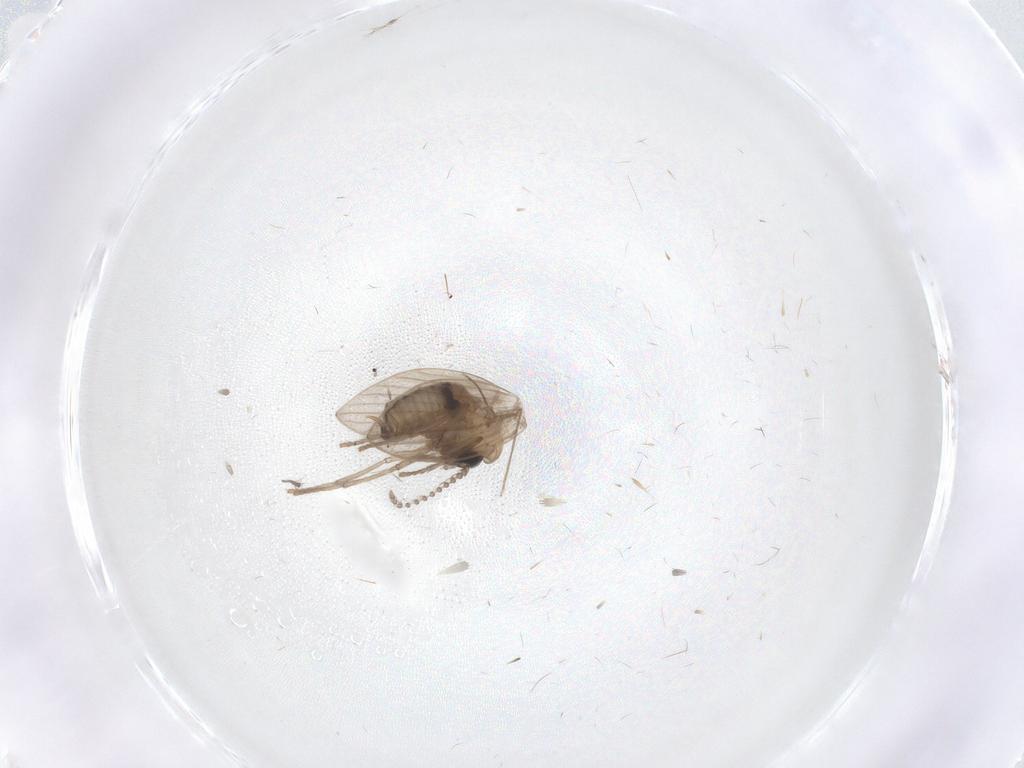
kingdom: Animalia
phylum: Arthropoda
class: Insecta
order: Diptera
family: Psychodidae
